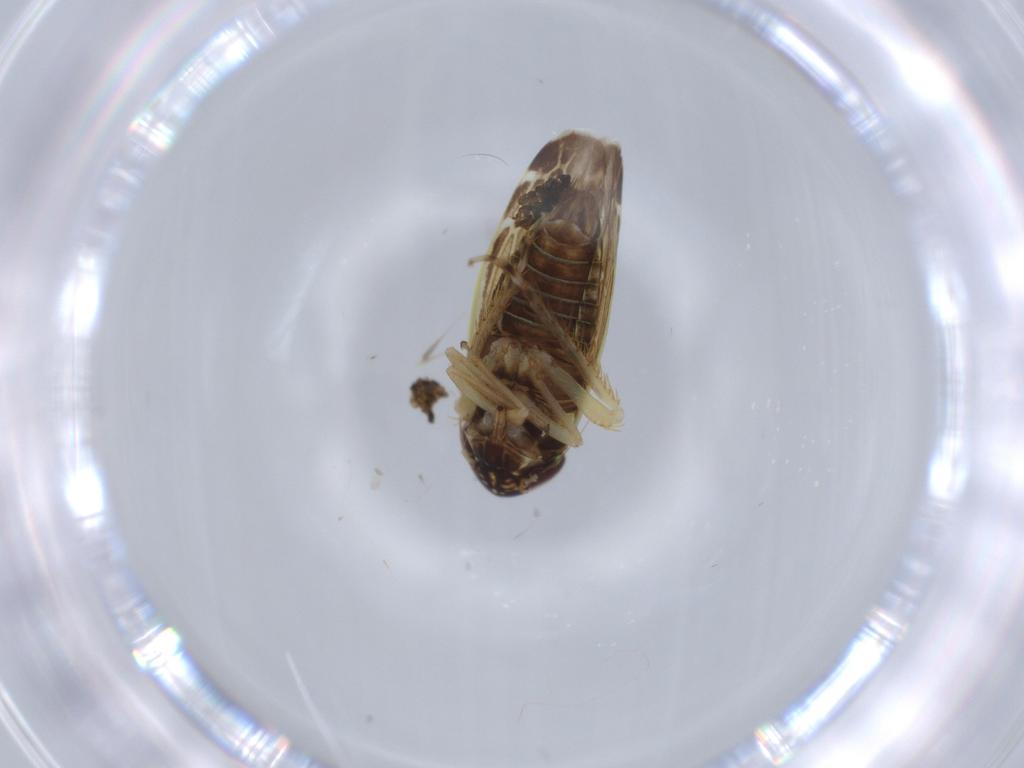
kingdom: Animalia
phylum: Arthropoda
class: Insecta
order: Hemiptera
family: Cicadellidae
